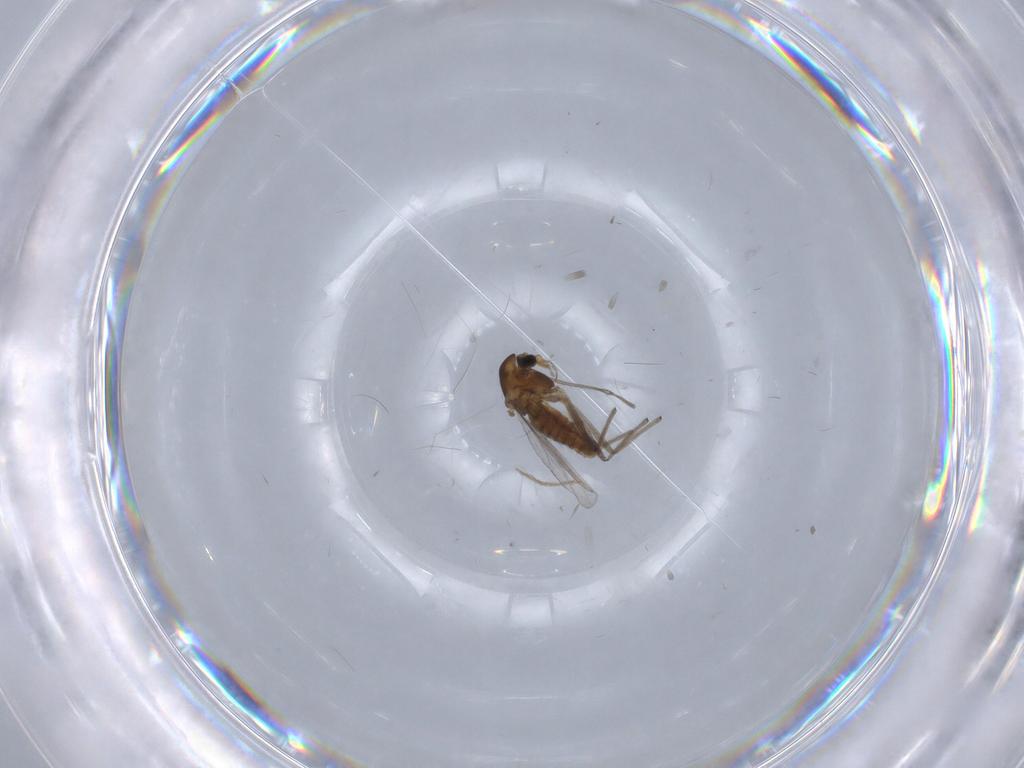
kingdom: Animalia
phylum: Arthropoda
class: Insecta
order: Diptera
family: Chironomidae
